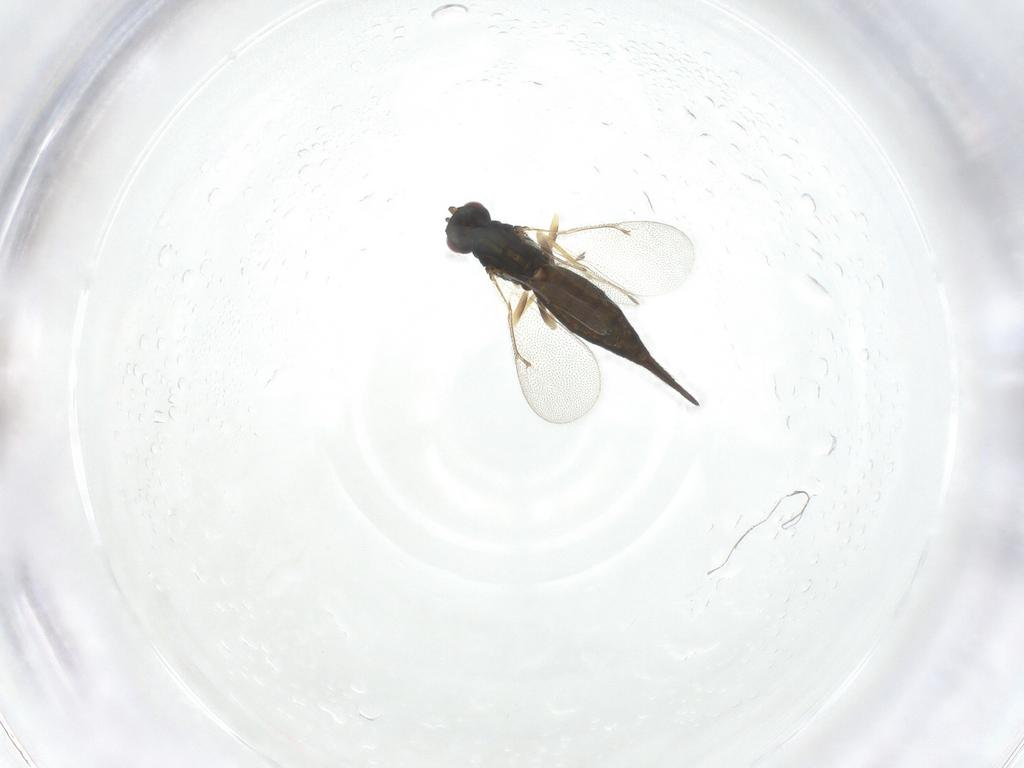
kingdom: Animalia
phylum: Arthropoda
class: Insecta
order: Hymenoptera
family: Eulophidae
